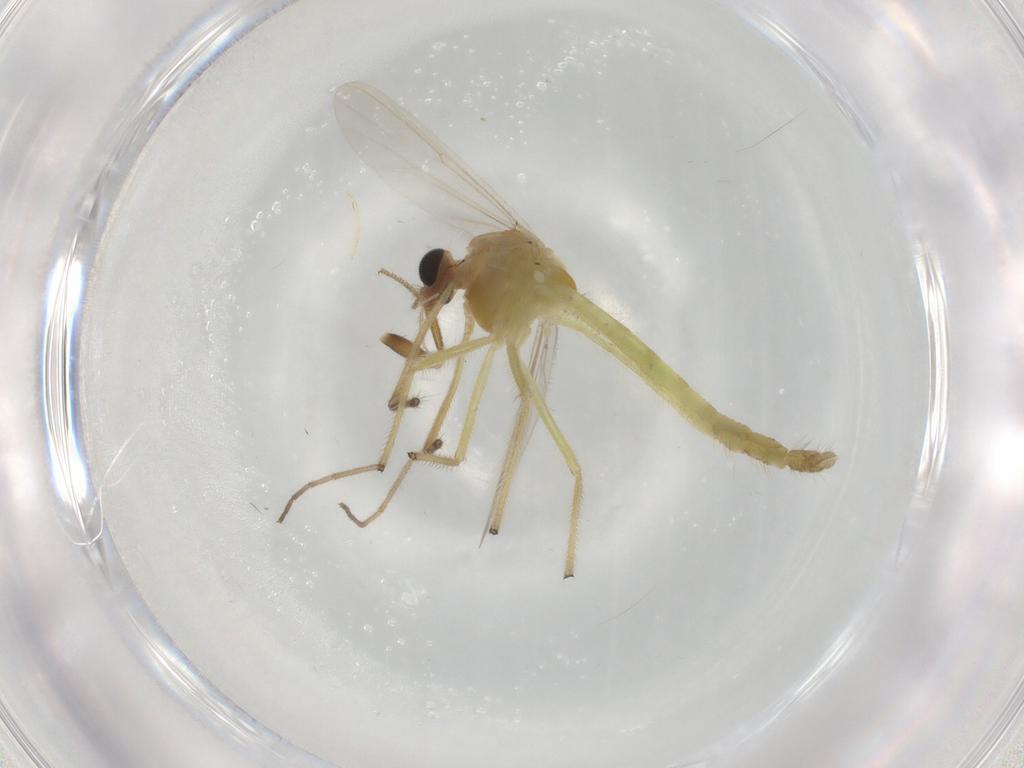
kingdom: Animalia
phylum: Arthropoda
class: Insecta
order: Diptera
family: Chironomidae
